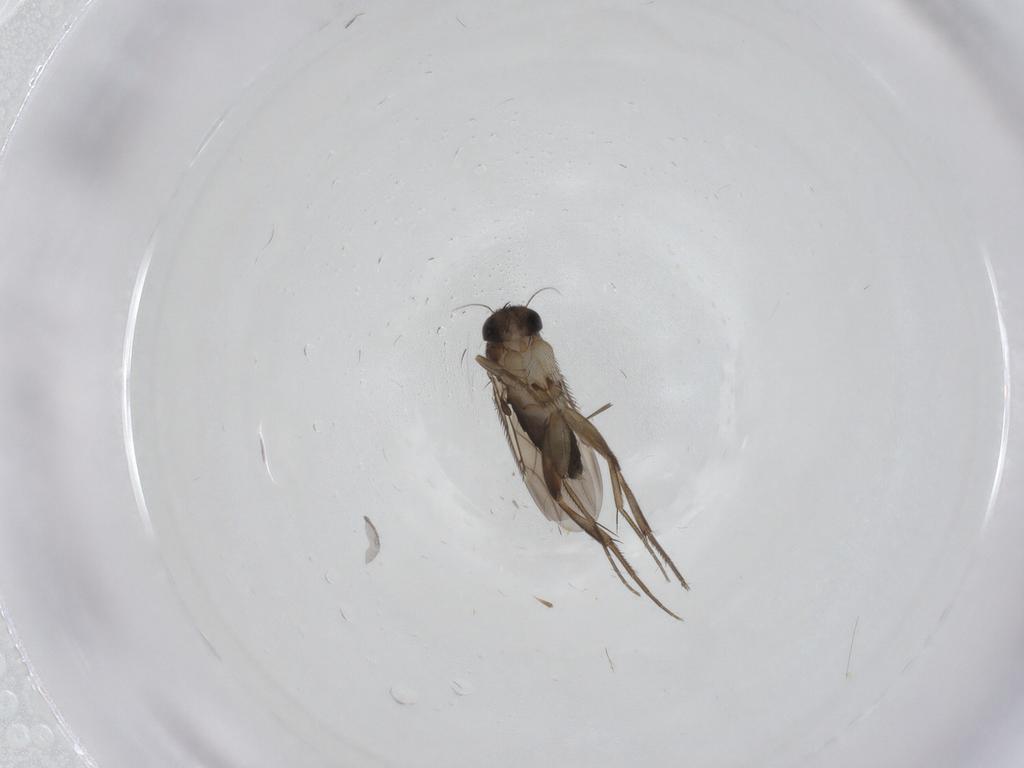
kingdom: Animalia
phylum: Arthropoda
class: Insecta
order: Diptera
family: Phoridae
